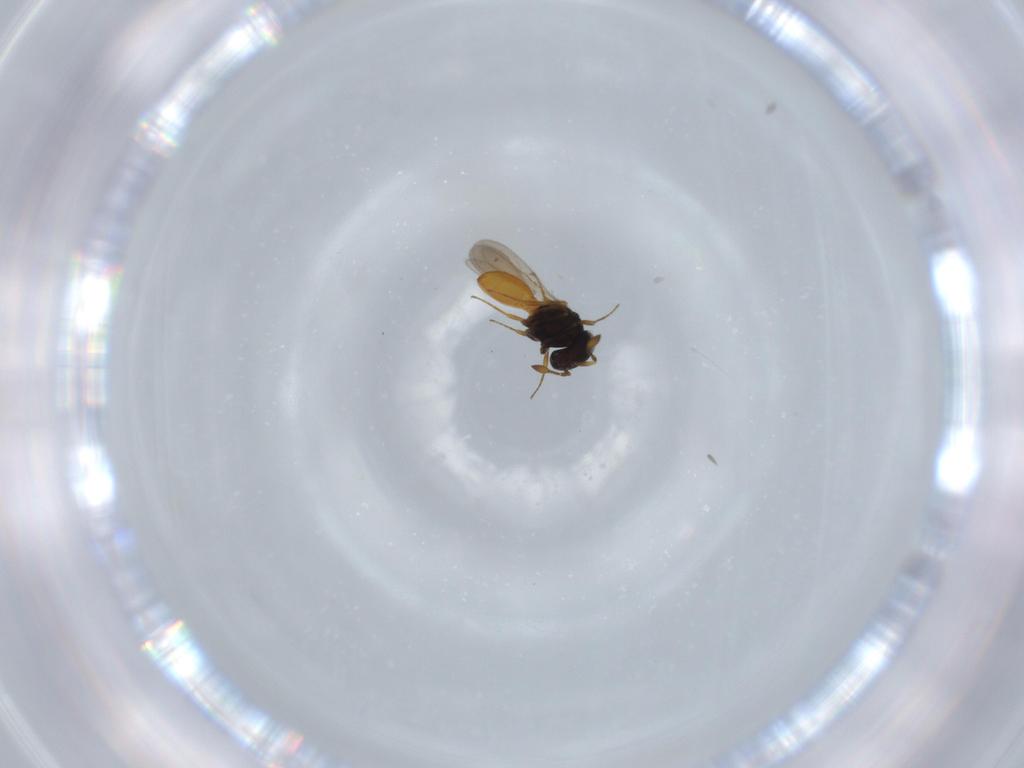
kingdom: Animalia
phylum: Arthropoda
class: Insecta
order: Hymenoptera
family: Scelionidae
